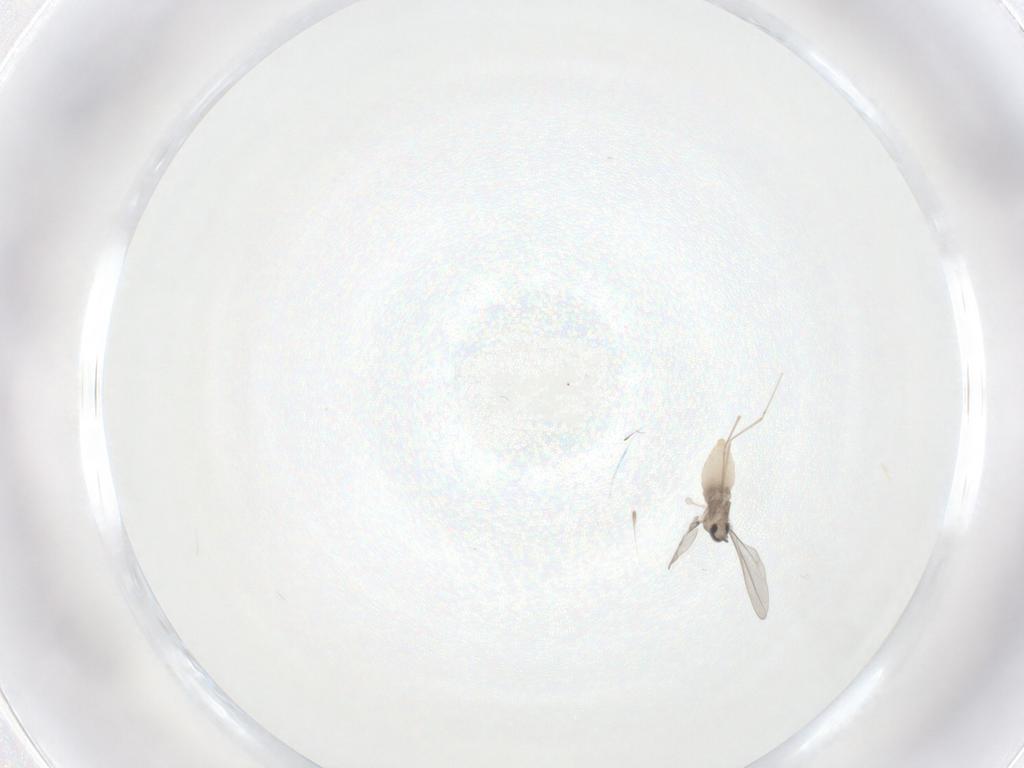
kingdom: Animalia
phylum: Arthropoda
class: Insecta
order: Diptera
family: Cecidomyiidae
